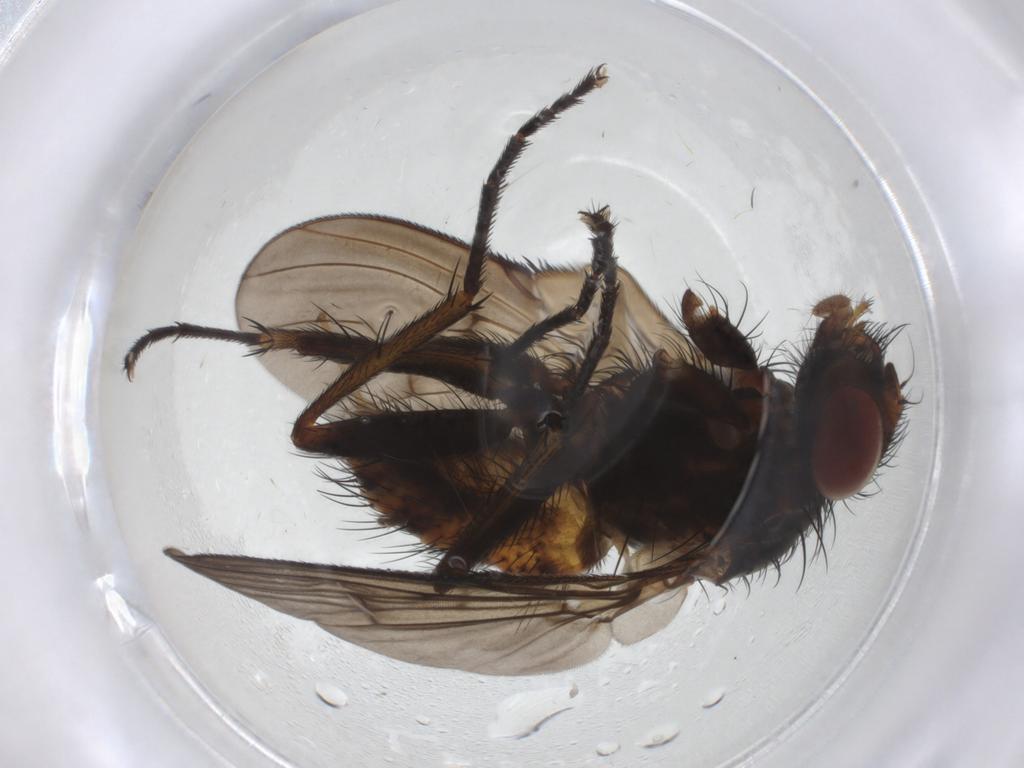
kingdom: Animalia
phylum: Arthropoda
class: Insecta
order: Diptera
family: Muscidae
